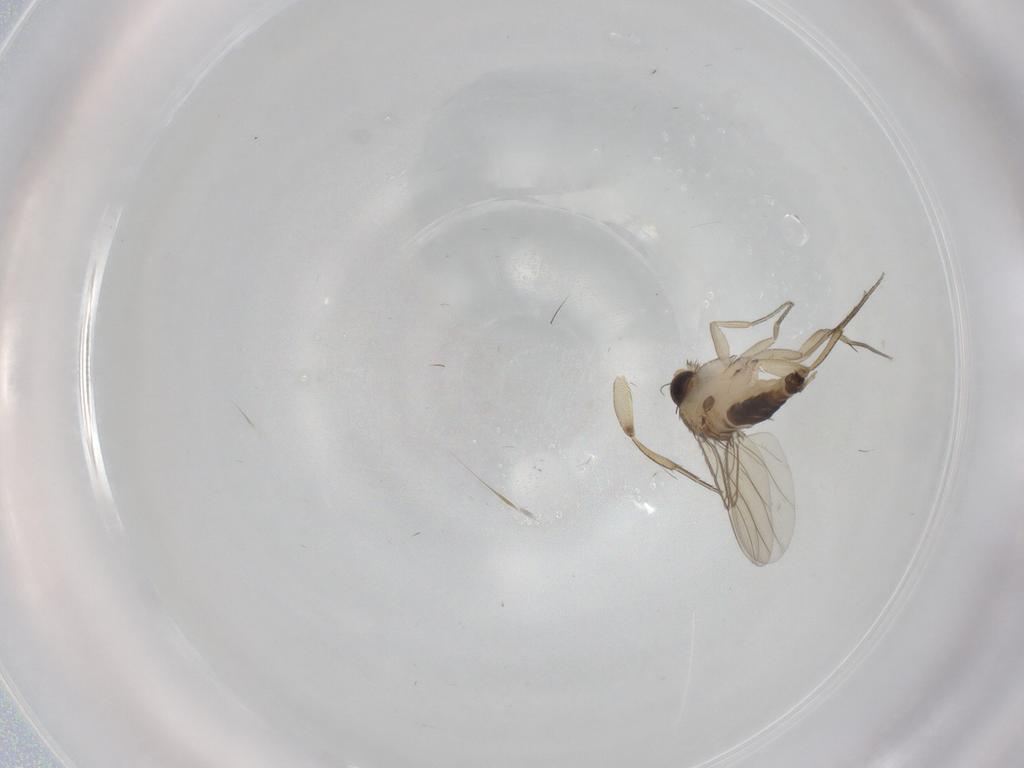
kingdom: Animalia
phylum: Arthropoda
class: Insecta
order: Diptera
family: Phoridae
